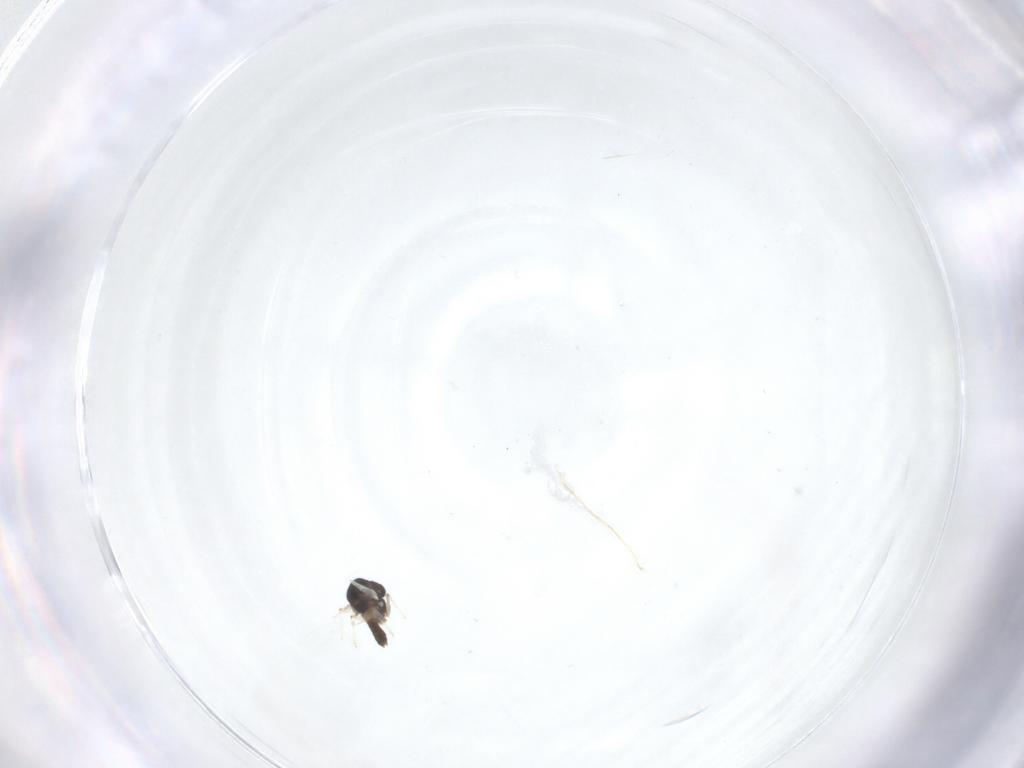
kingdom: Animalia
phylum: Arthropoda
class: Insecta
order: Diptera
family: Chironomidae
